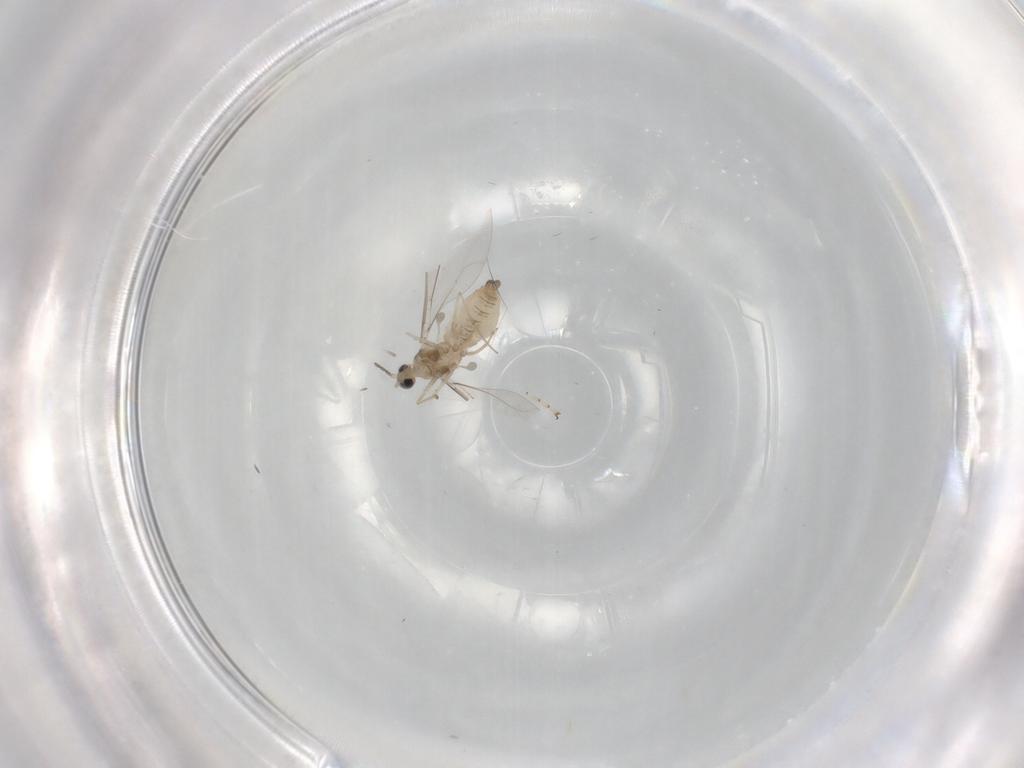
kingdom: Animalia
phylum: Arthropoda
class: Insecta
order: Diptera
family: Cecidomyiidae
